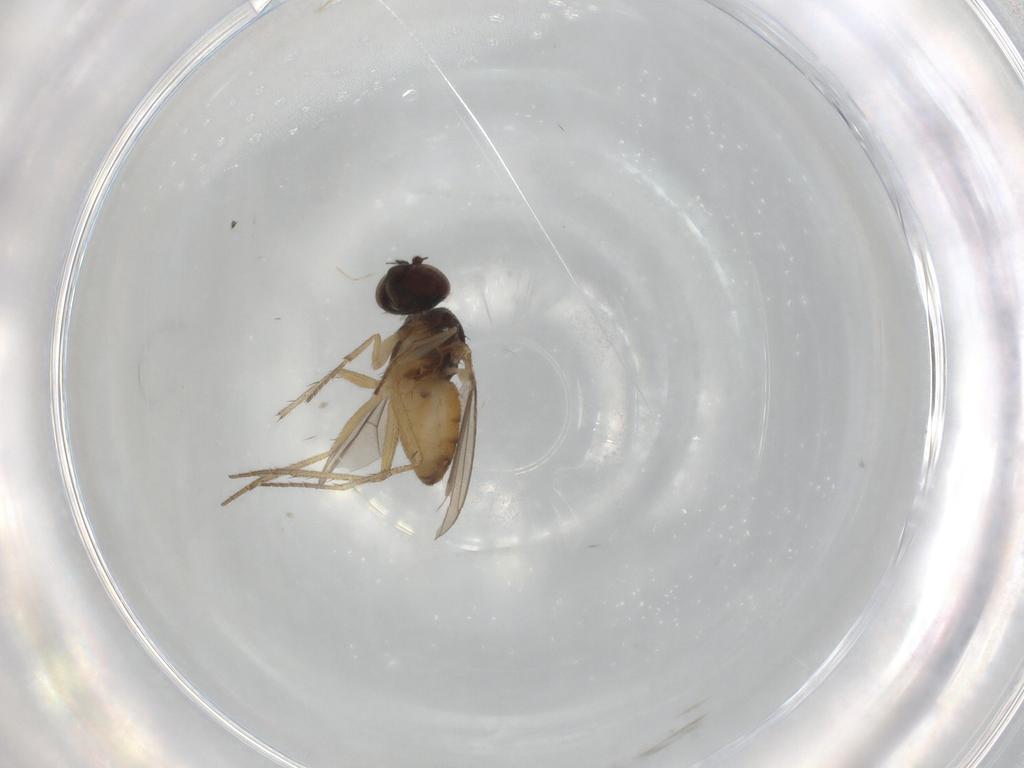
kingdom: Animalia
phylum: Arthropoda
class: Insecta
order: Diptera
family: Dolichopodidae
